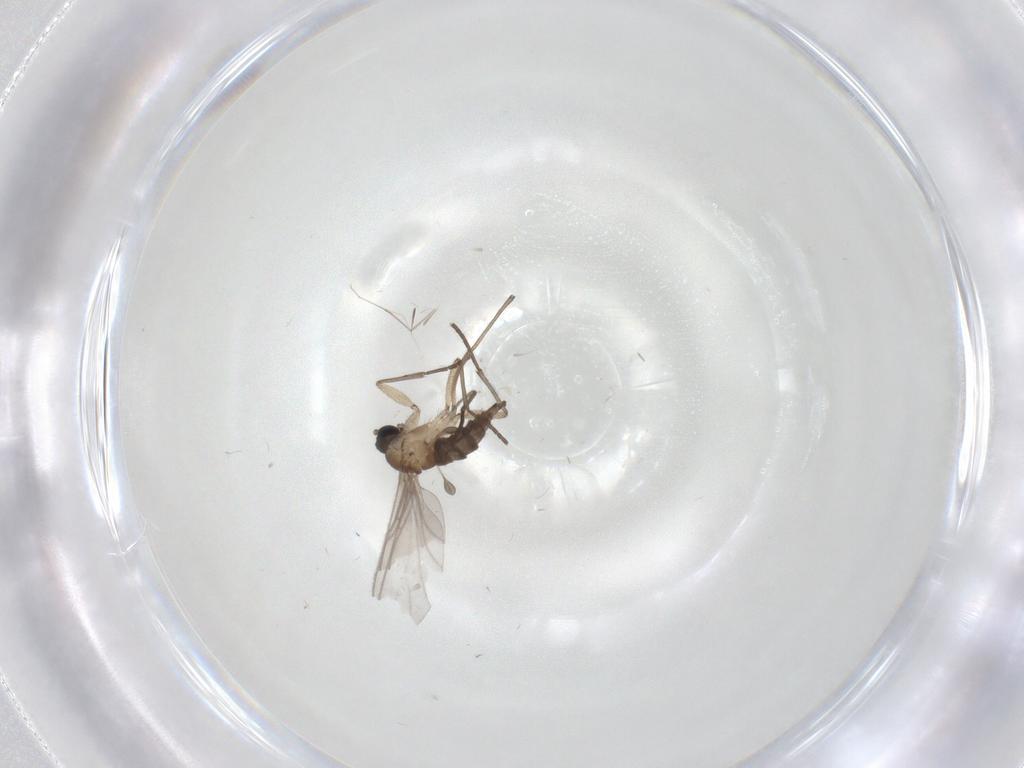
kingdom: Animalia
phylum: Arthropoda
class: Insecta
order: Diptera
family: Sciaridae
